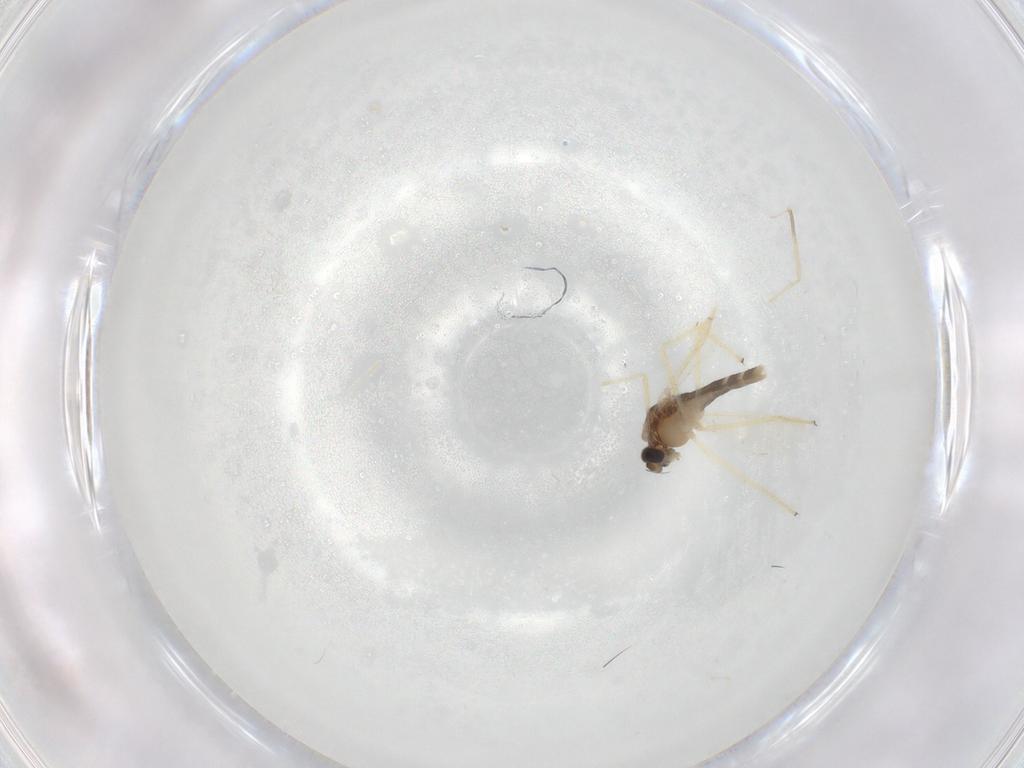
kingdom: Animalia
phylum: Arthropoda
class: Insecta
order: Diptera
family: Chironomidae
